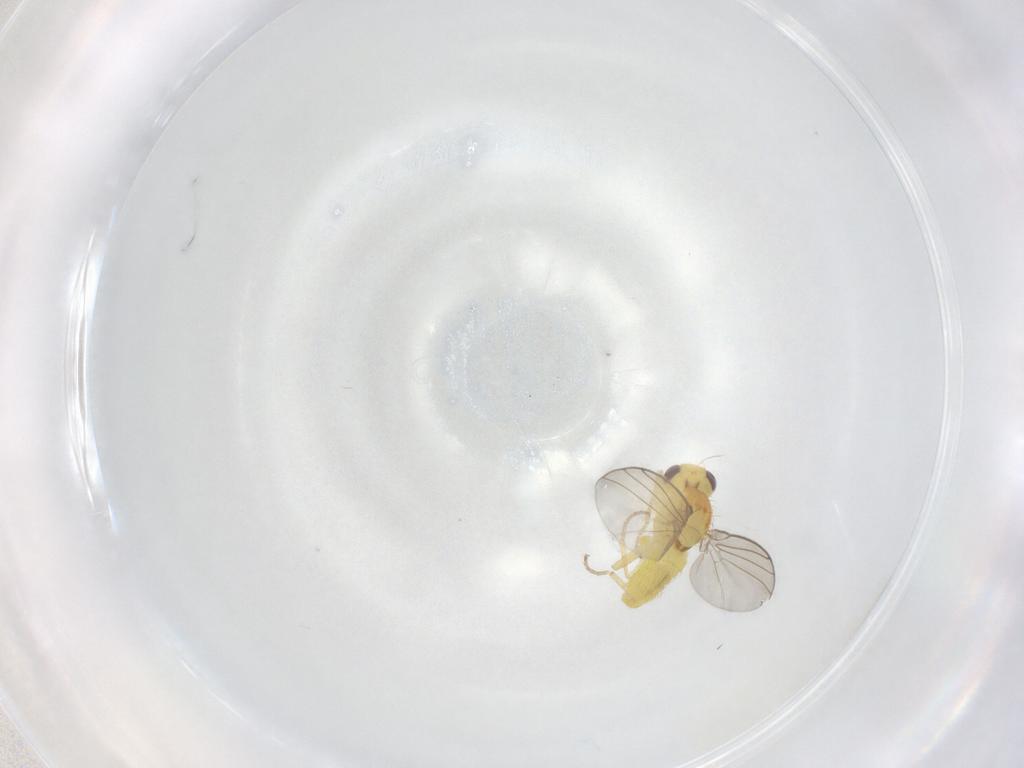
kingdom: Animalia
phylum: Arthropoda
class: Insecta
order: Diptera
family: Agromyzidae
